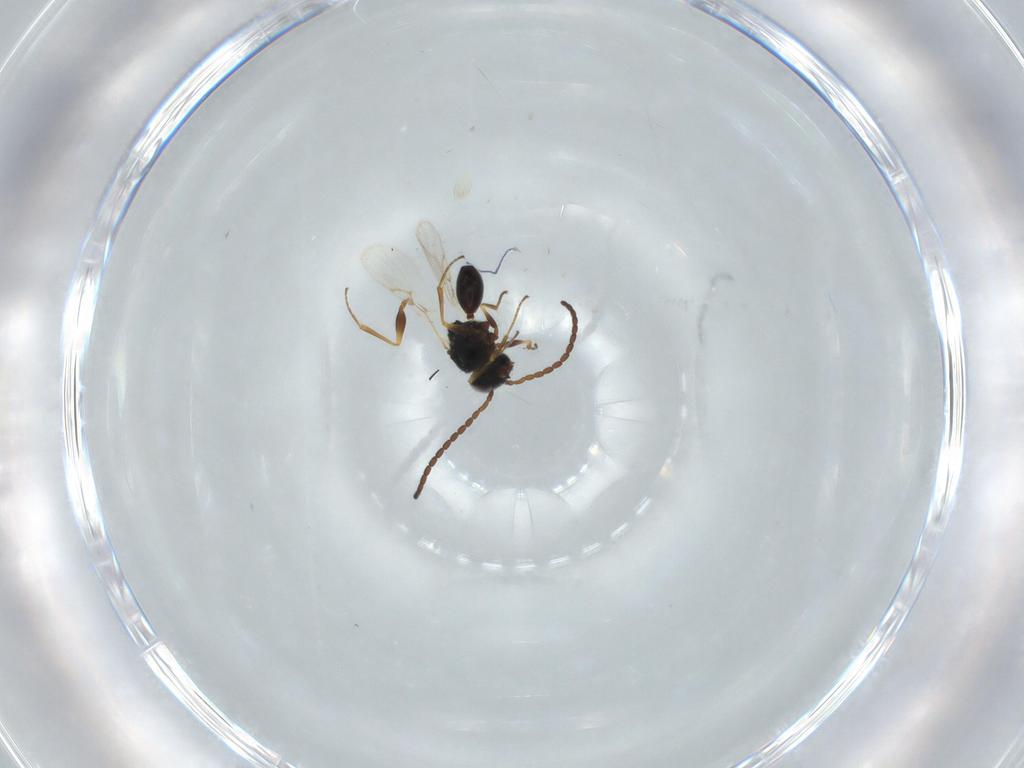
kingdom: Animalia
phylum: Arthropoda
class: Insecta
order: Hymenoptera
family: Figitidae
